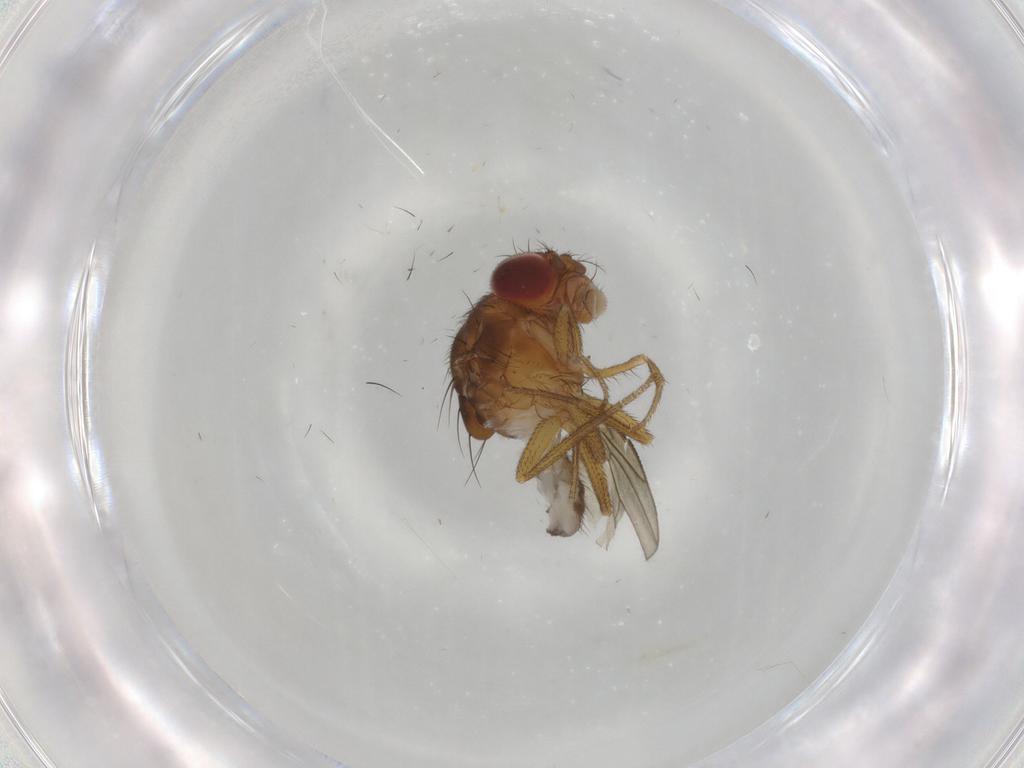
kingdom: Animalia
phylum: Arthropoda
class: Insecta
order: Diptera
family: Drosophilidae
